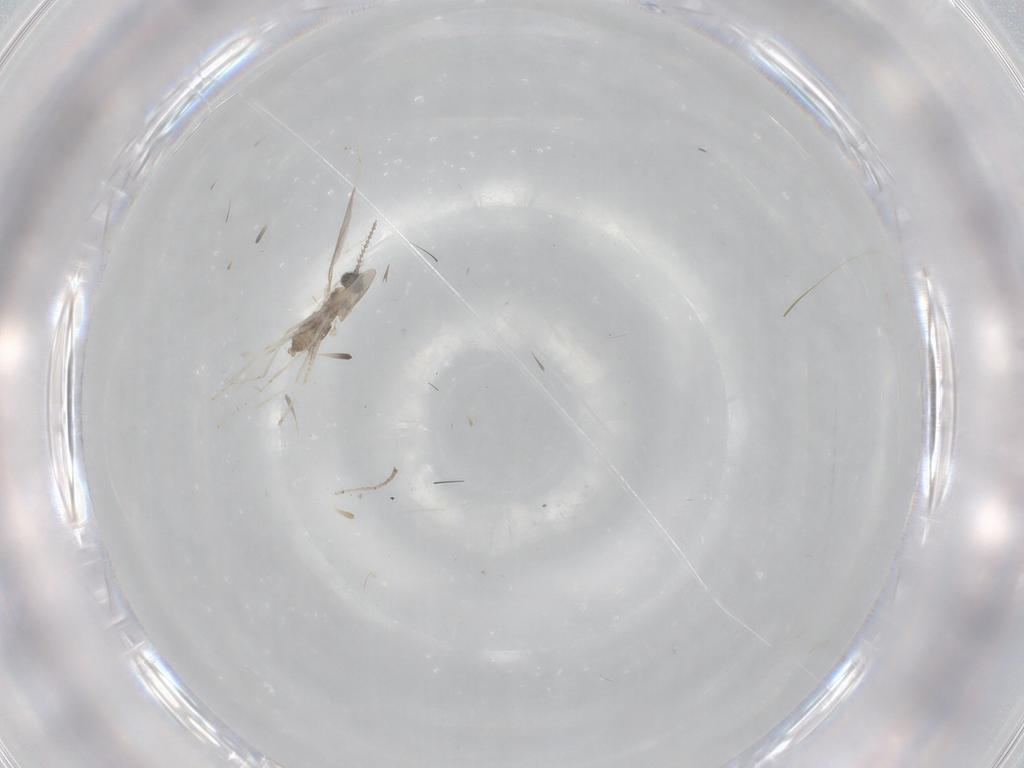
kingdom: Animalia
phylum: Arthropoda
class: Insecta
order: Diptera
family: Cecidomyiidae
